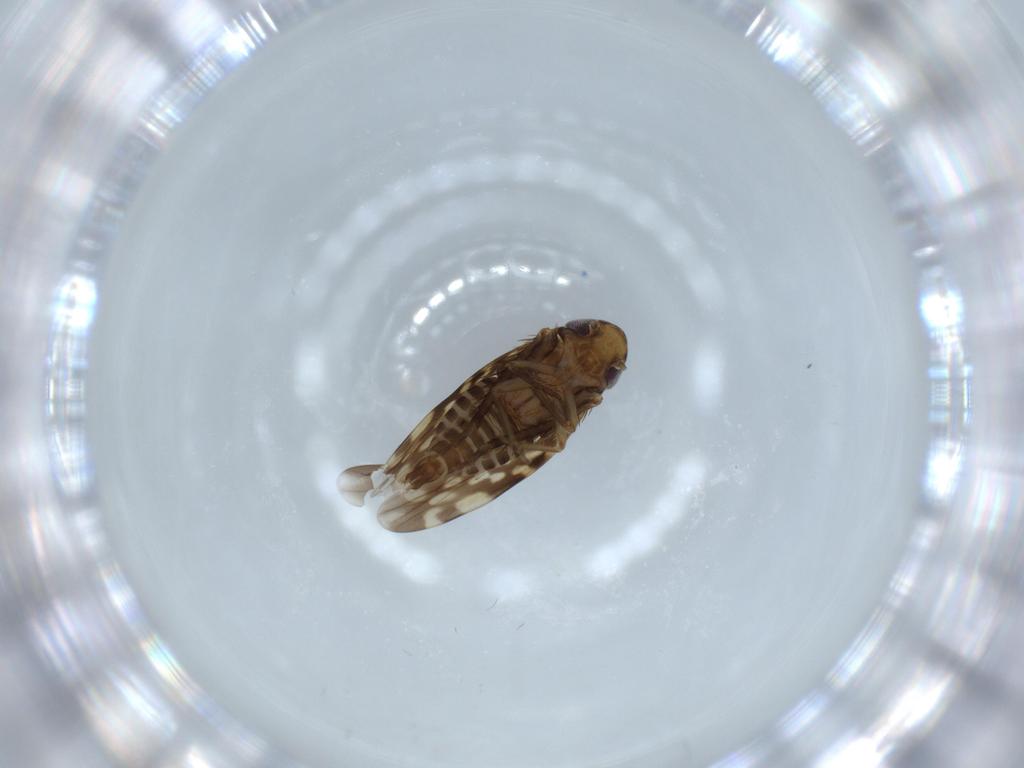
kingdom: Animalia
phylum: Arthropoda
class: Insecta
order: Hemiptera
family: Cicadellidae
